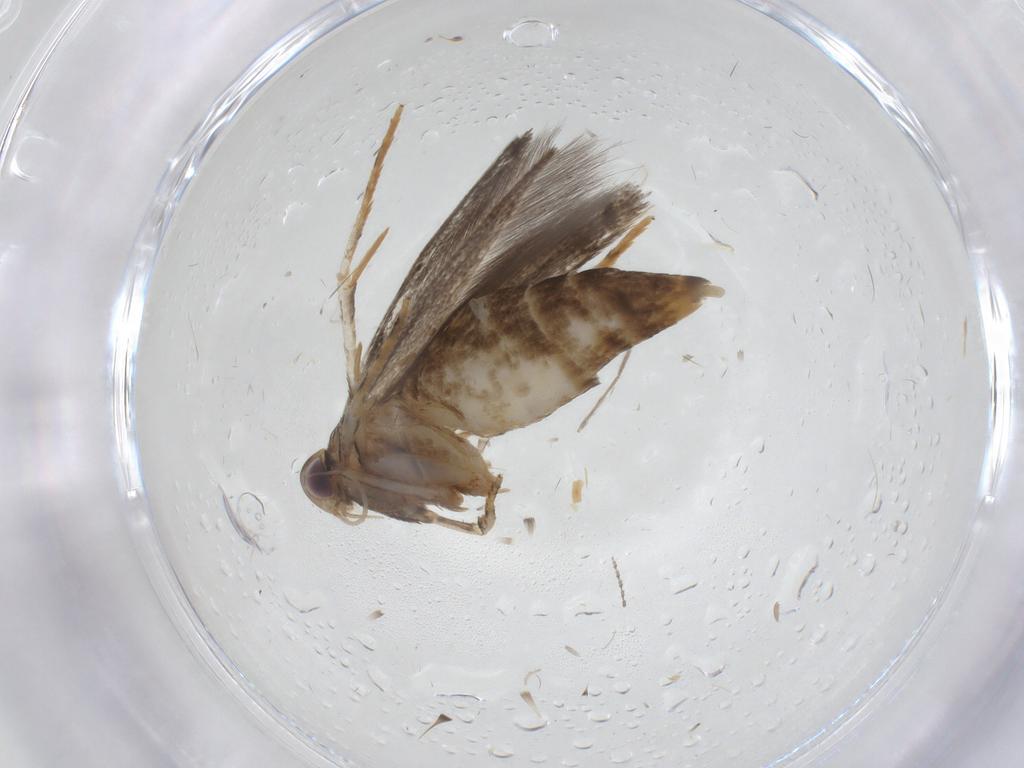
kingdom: Animalia
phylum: Arthropoda
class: Insecta
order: Lepidoptera
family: Cosmopterigidae
